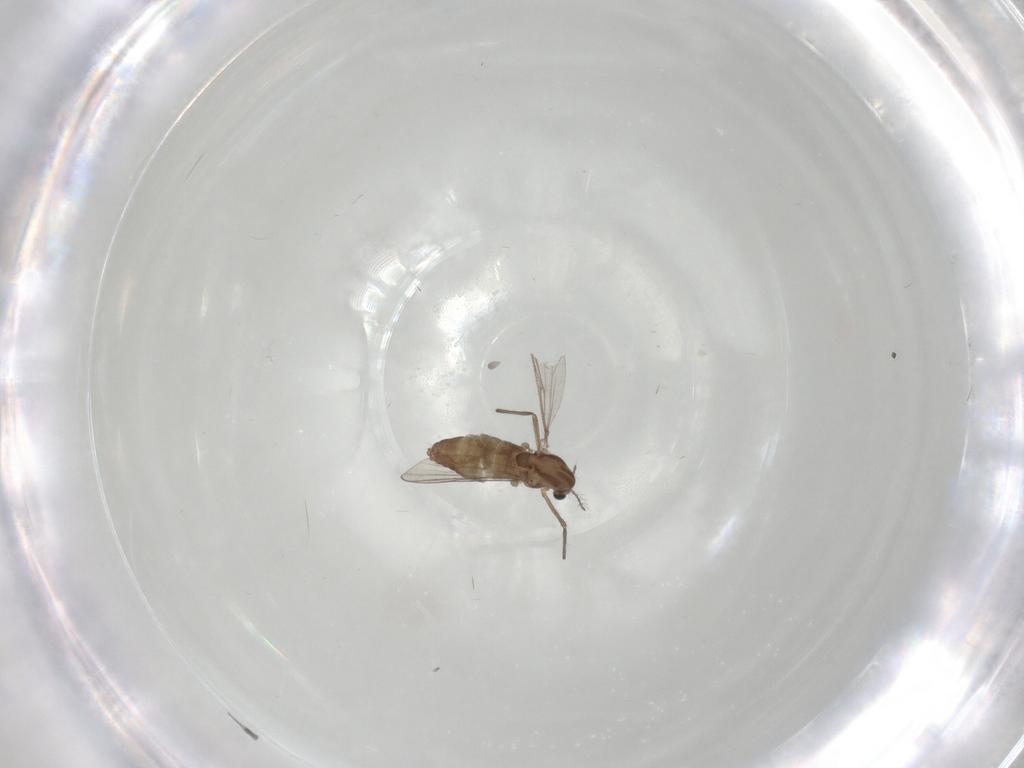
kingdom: Animalia
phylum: Arthropoda
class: Insecta
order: Diptera
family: Chironomidae
